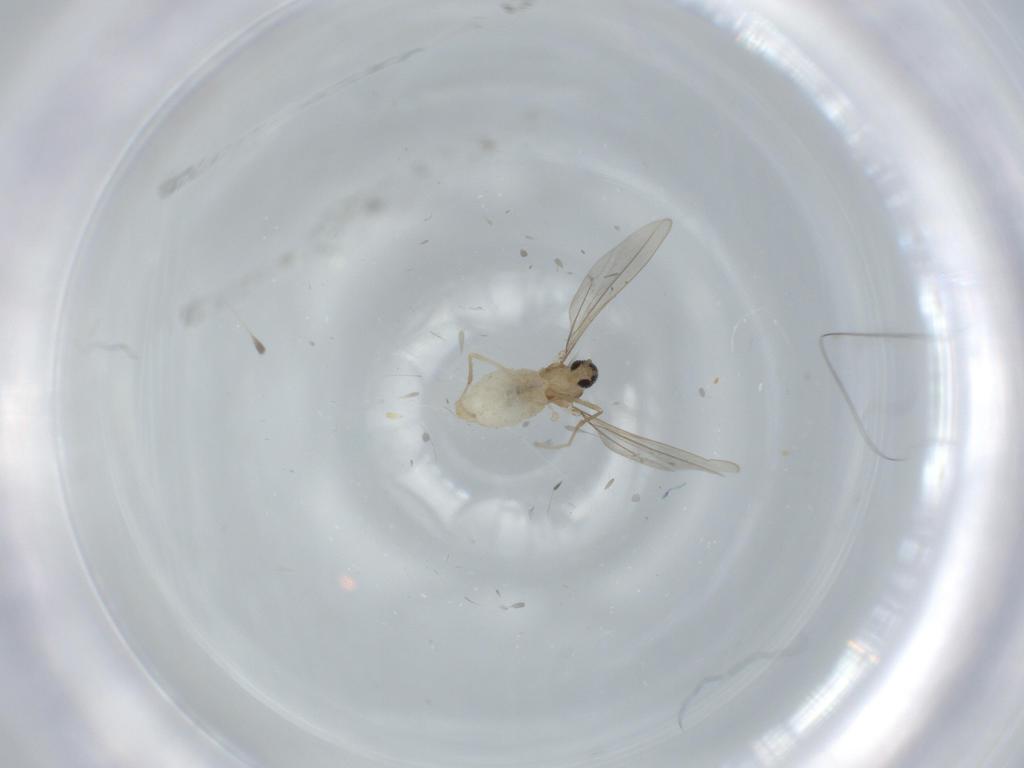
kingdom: Animalia
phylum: Arthropoda
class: Insecta
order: Diptera
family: Cecidomyiidae
